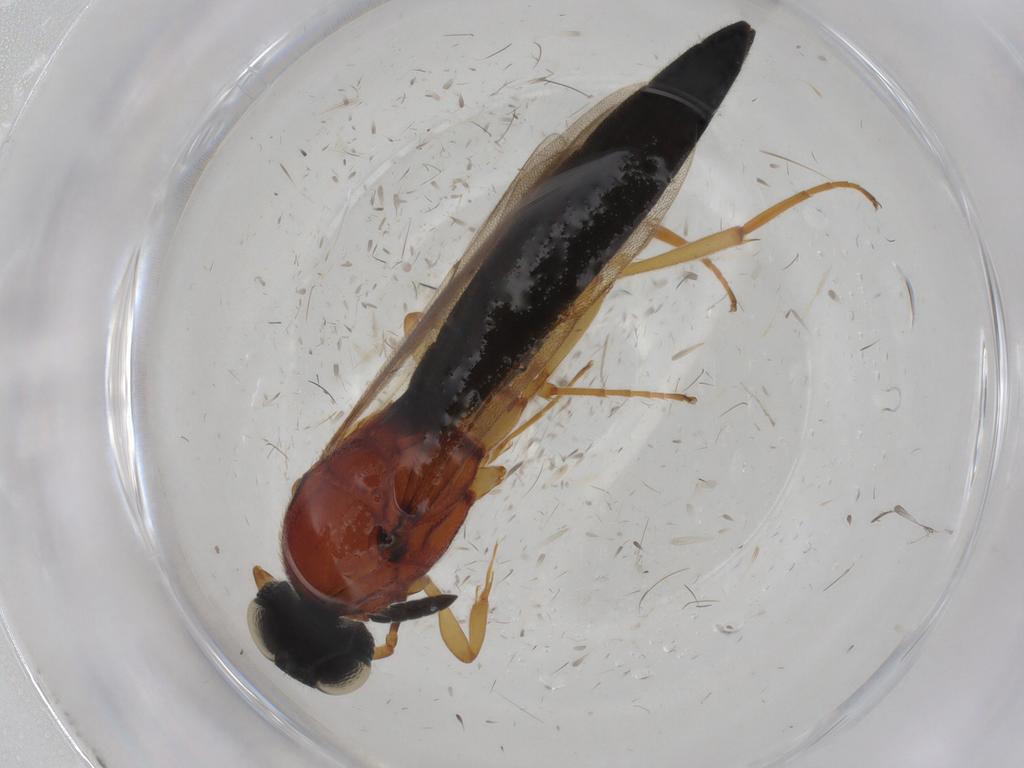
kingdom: Animalia
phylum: Arthropoda
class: Insecta
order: Hymenoptera
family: Scelionidae
